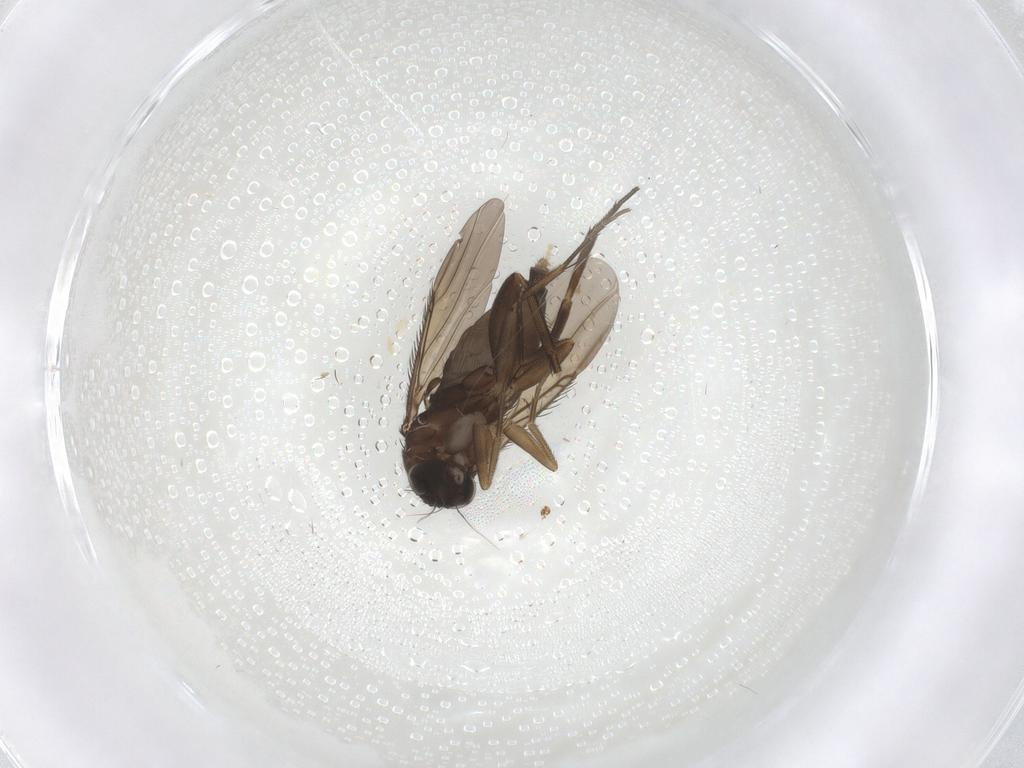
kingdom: Animalia
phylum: Arthropoda
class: Insecta
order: Diptera
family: Phoridae
